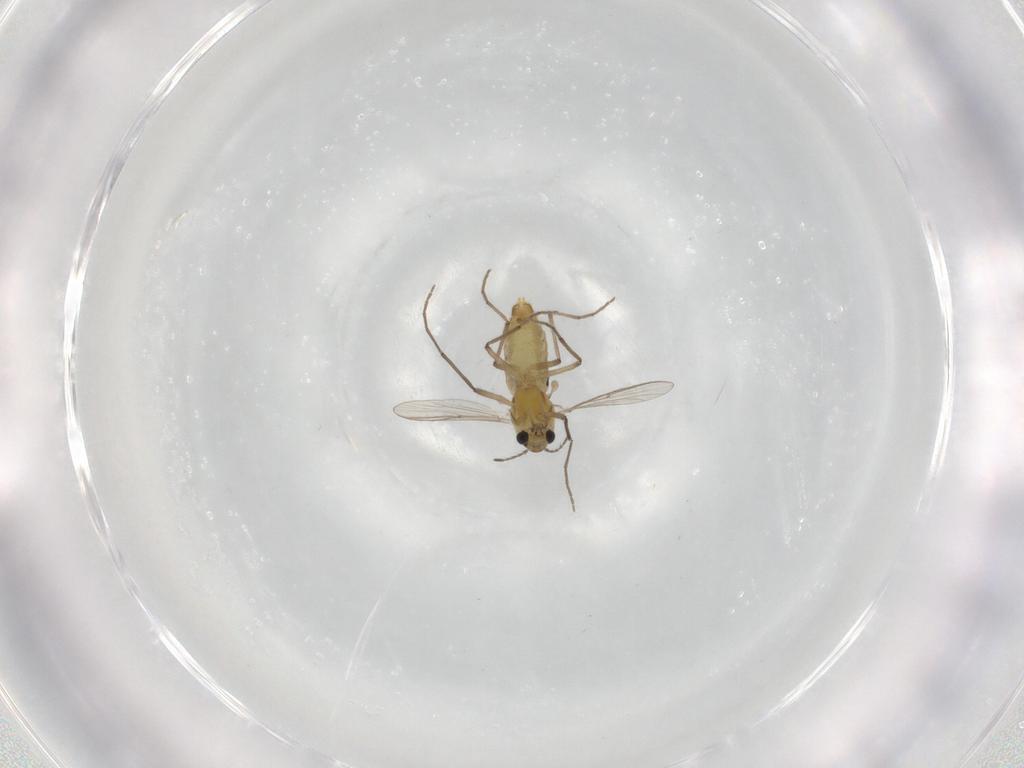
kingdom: Animalia
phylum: Arthropoda
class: Insecta
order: Diptera
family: Chironomidae
